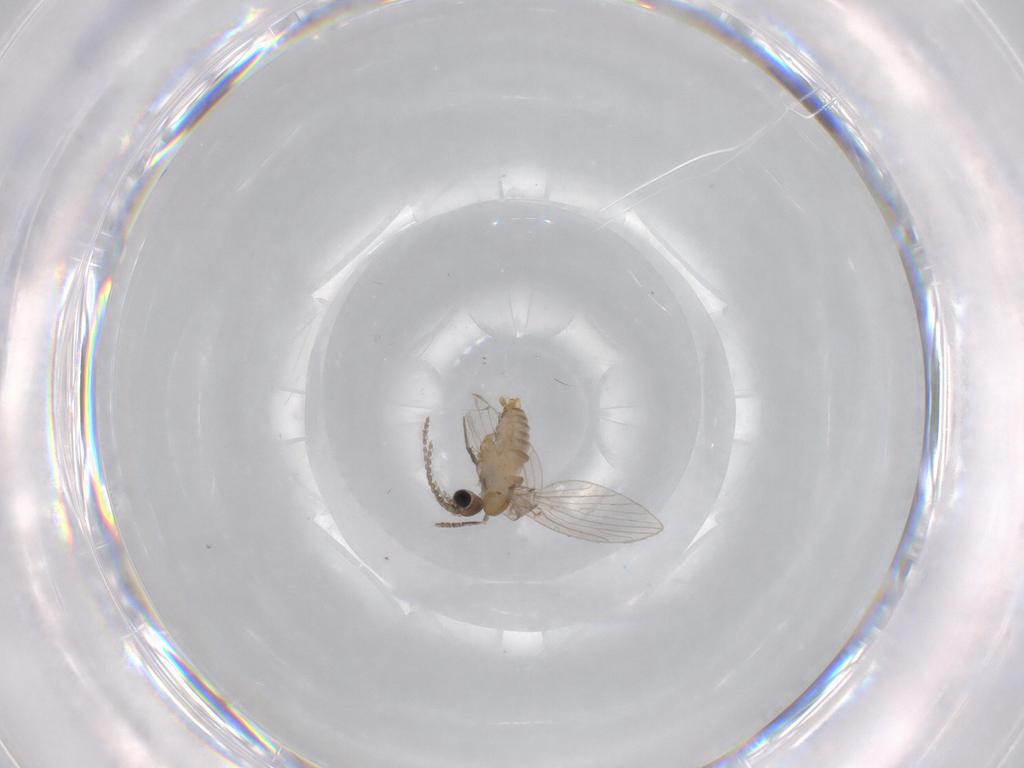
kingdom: Animalia
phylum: Arthropoda
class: Insecta
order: Diptera
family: Psychodidae
